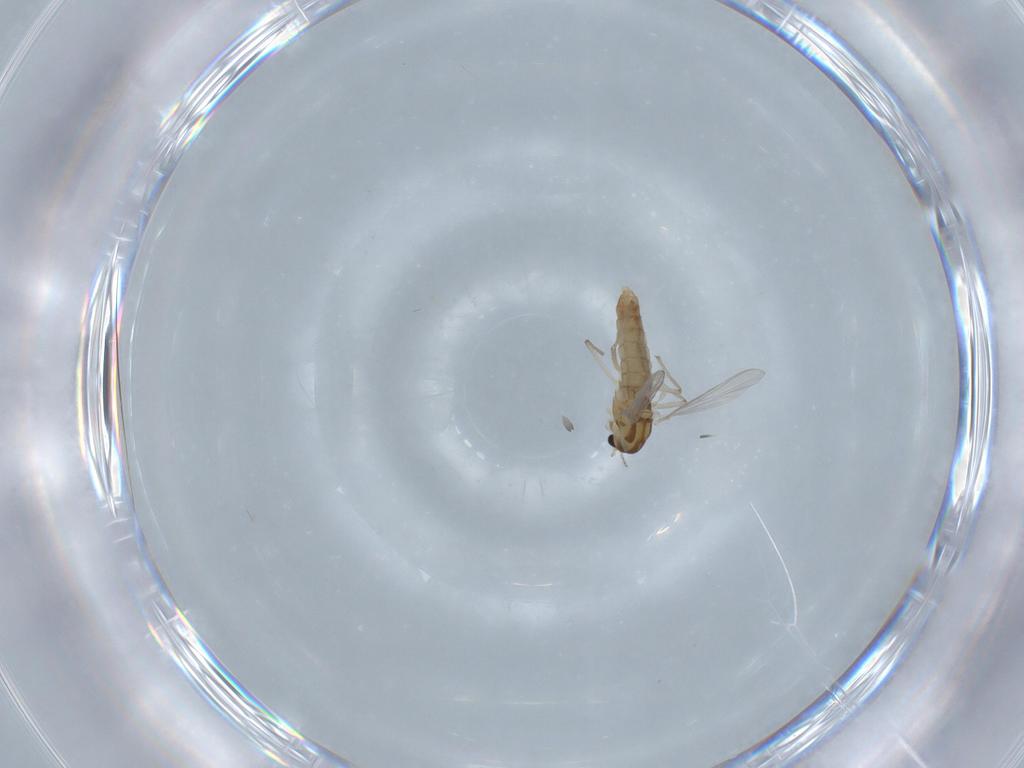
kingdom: Animalia
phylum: Arthropoda
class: Insecta
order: Diptera
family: Chironomidae
